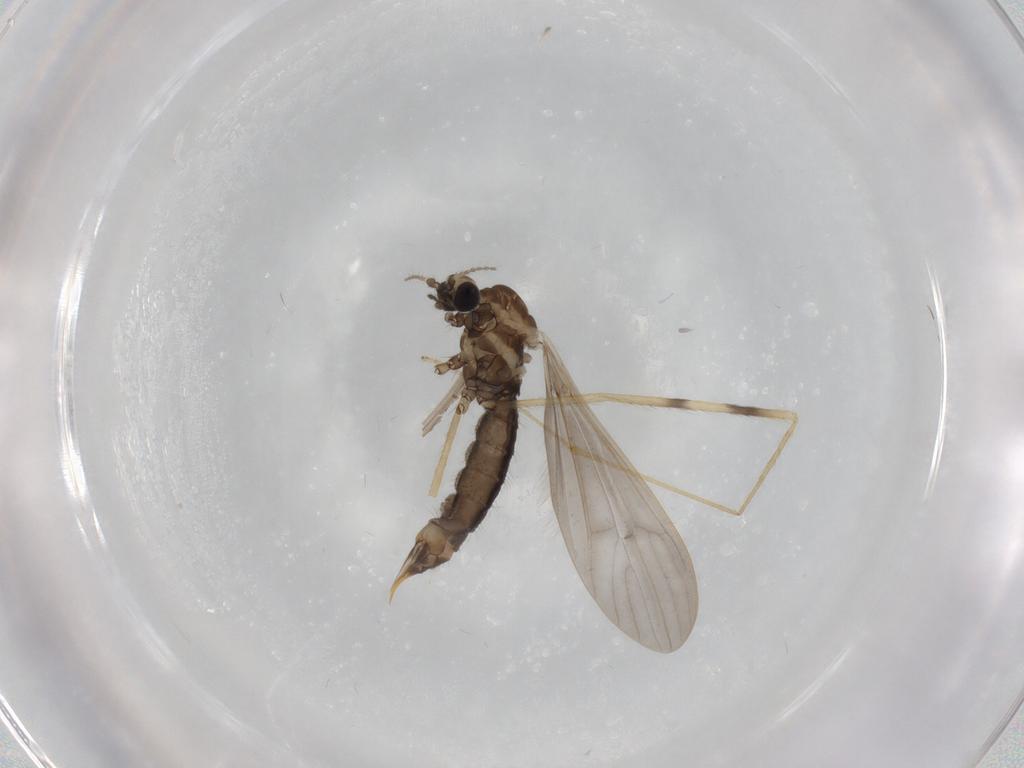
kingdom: Animalia
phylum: Arthropoda
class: Insecta
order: Diptera
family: Limoniidae
